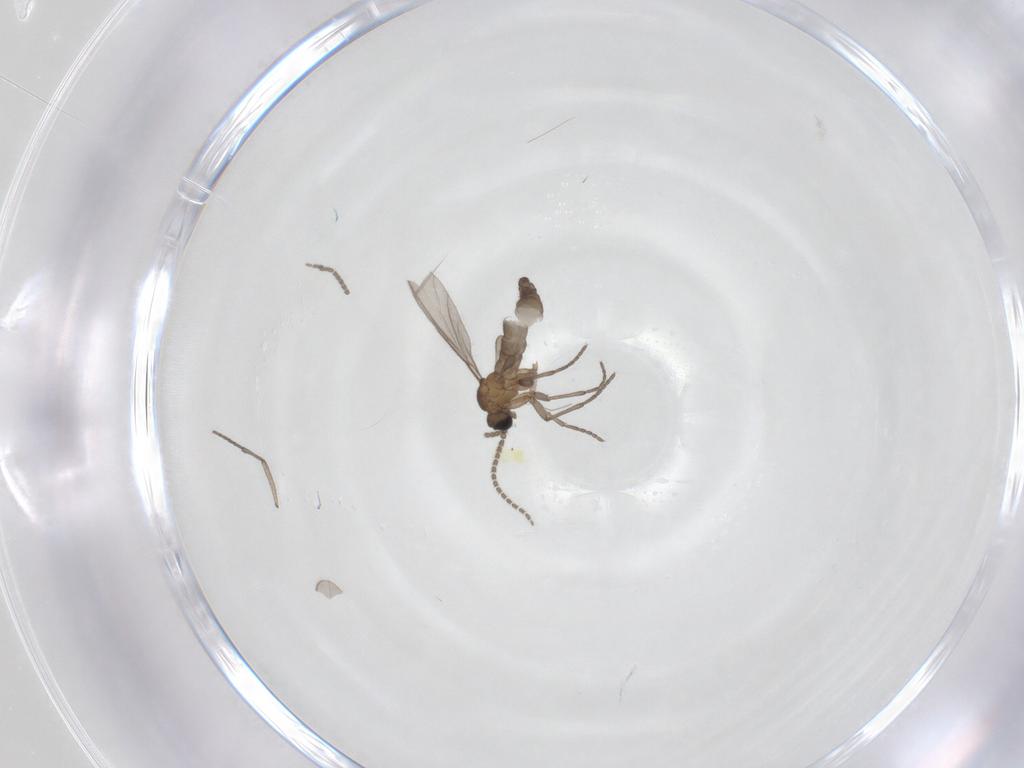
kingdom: Animalia
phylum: Arthropoda
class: Insecta
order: Diptera
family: Sciaridae
